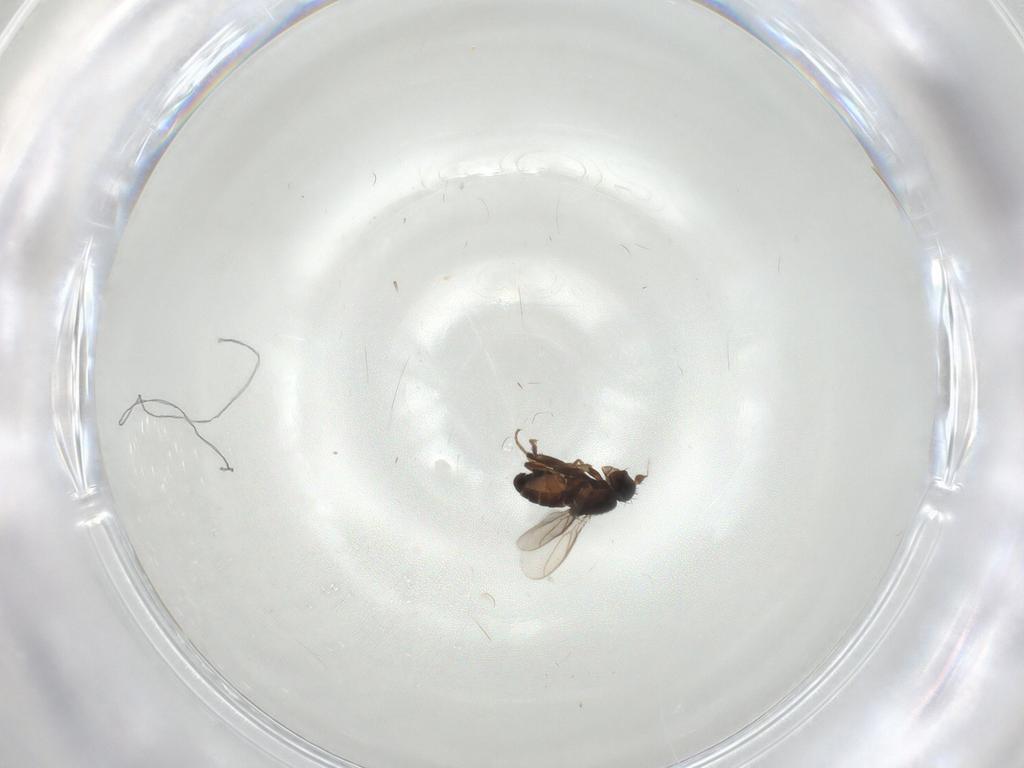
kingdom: Animalia
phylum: Arthropoda
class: Insecta
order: Diptera
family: Sphaeroceridae
